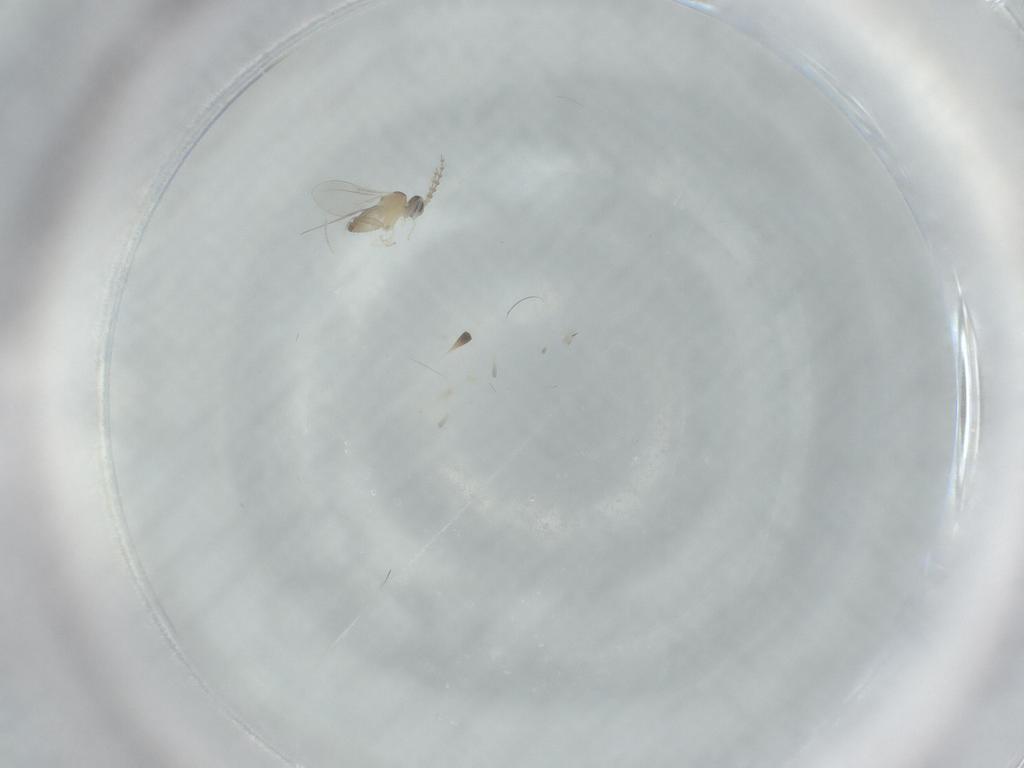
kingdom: Animalia
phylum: Arthropoda
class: Insecta
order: Diptera
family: Cecidomyiidae
